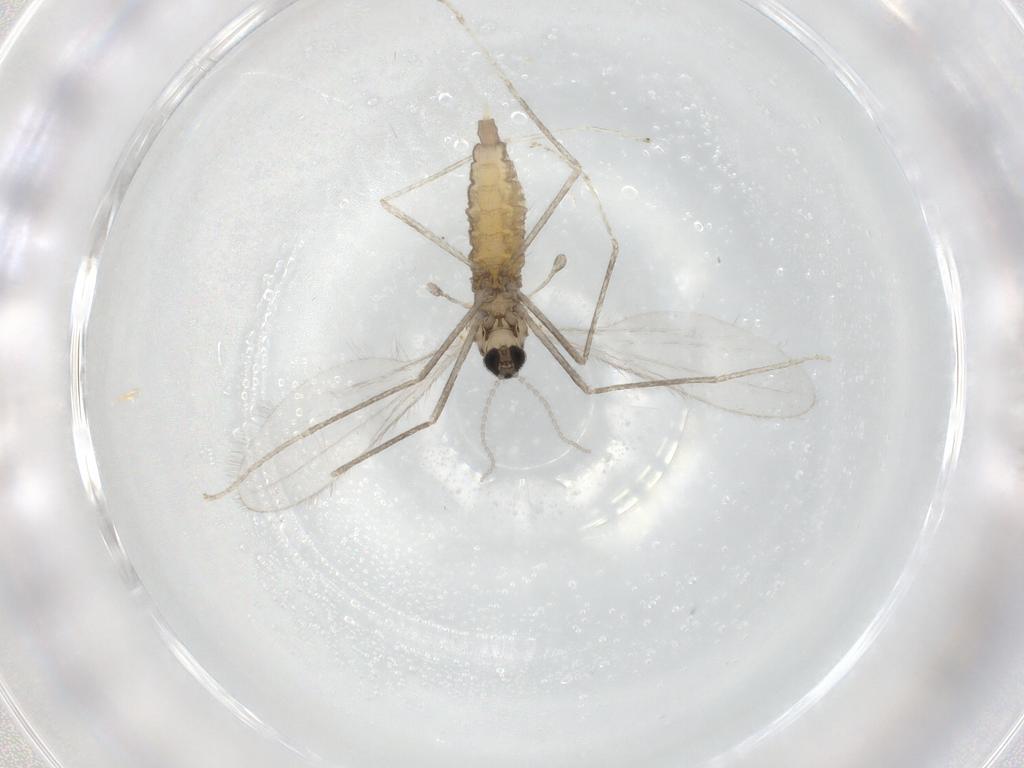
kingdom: Animalia
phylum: Arthropoda
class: Insecta
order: Diptera
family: Cecidomyiidae
